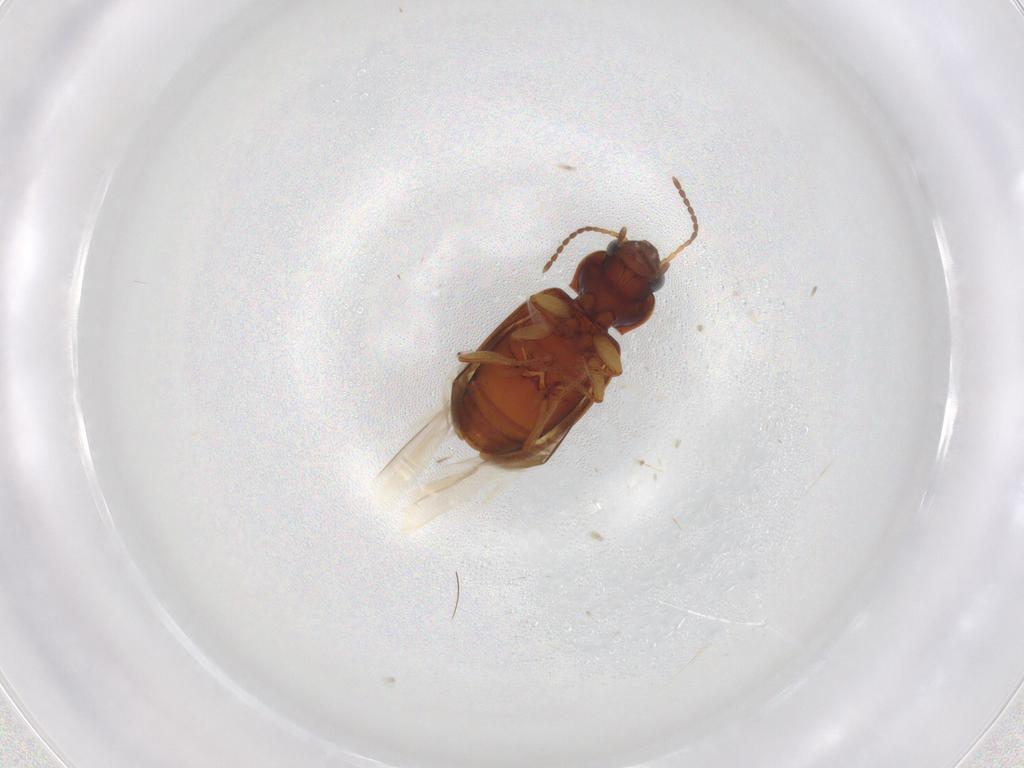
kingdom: Animalia
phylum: Arthropoda
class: Insecta
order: Coleoptera
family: Carabidae
